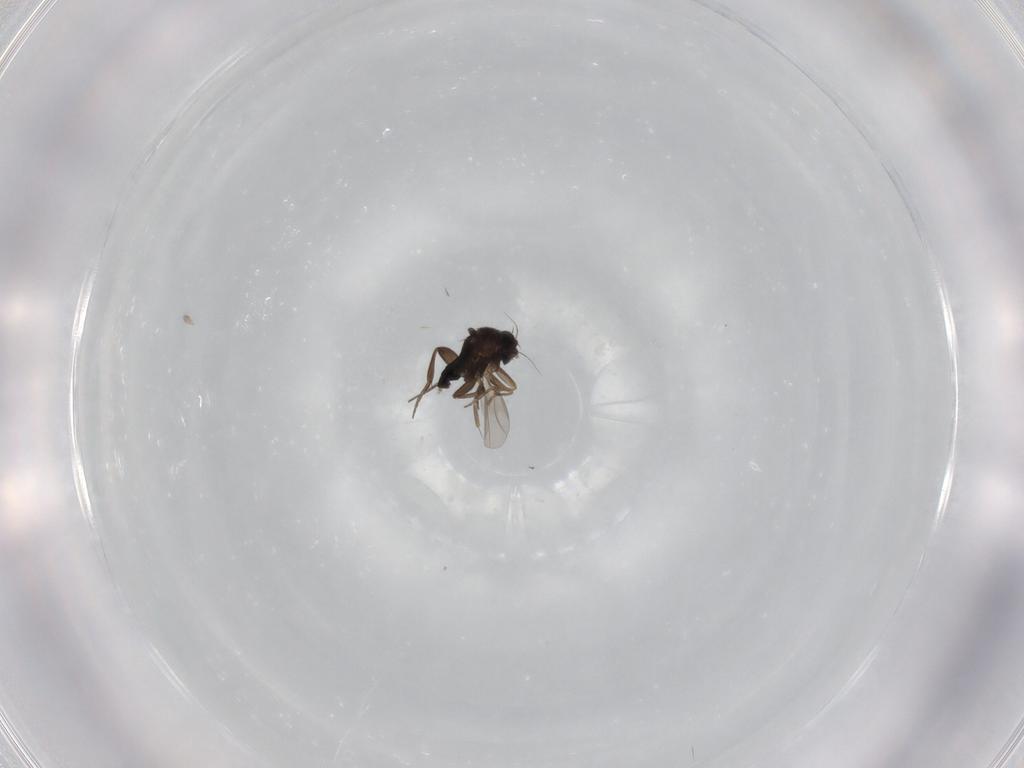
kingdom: Animalia
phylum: Arthropoda
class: Insecta
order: Diptera
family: Phoridae
